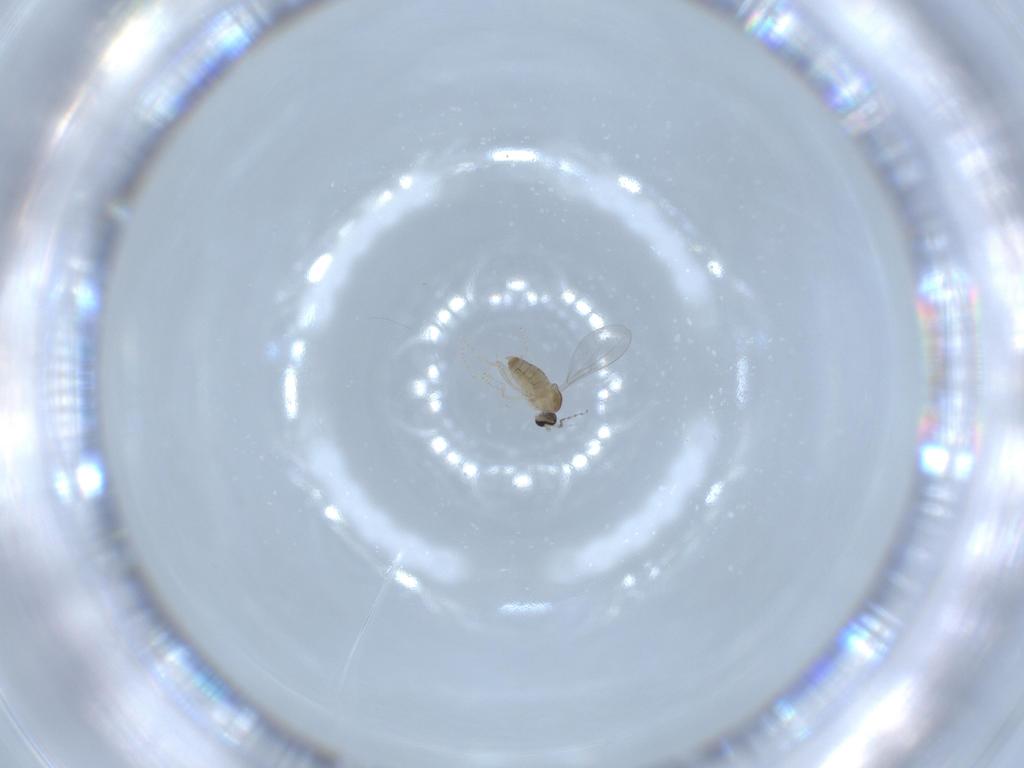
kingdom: Animalia
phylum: Arthropoda
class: Insecta
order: Diptera
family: Cecidomyiidae
